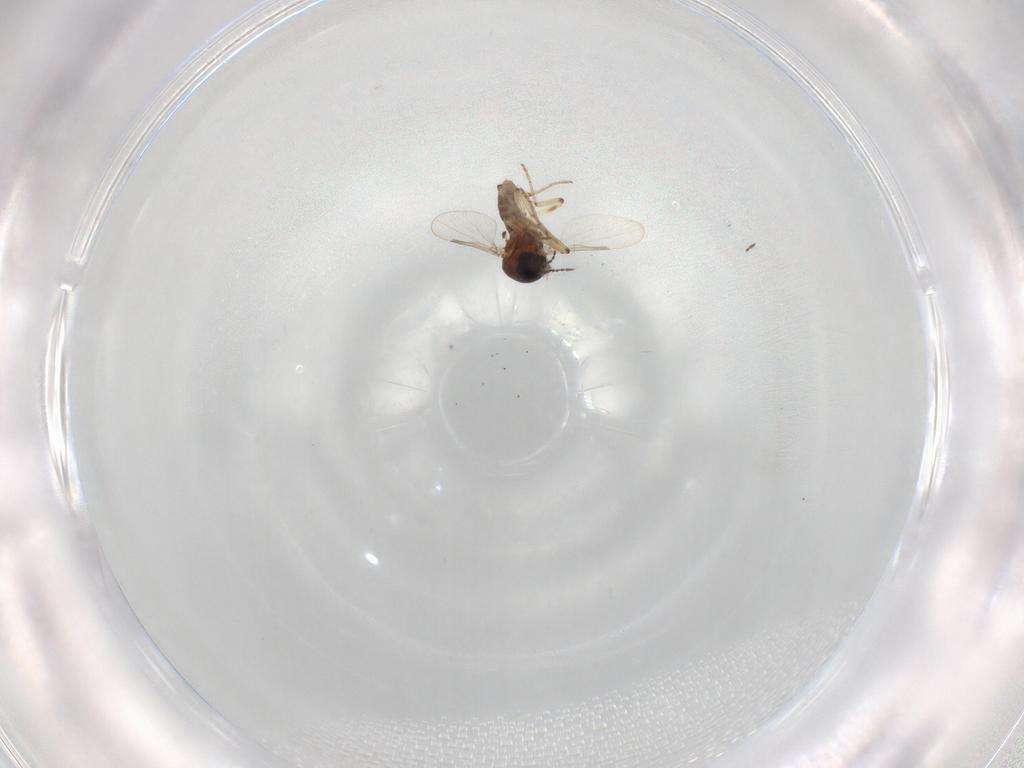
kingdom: Animalia
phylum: Arthropoda
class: Insecta
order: Diptera
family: Ceratopogonidae
